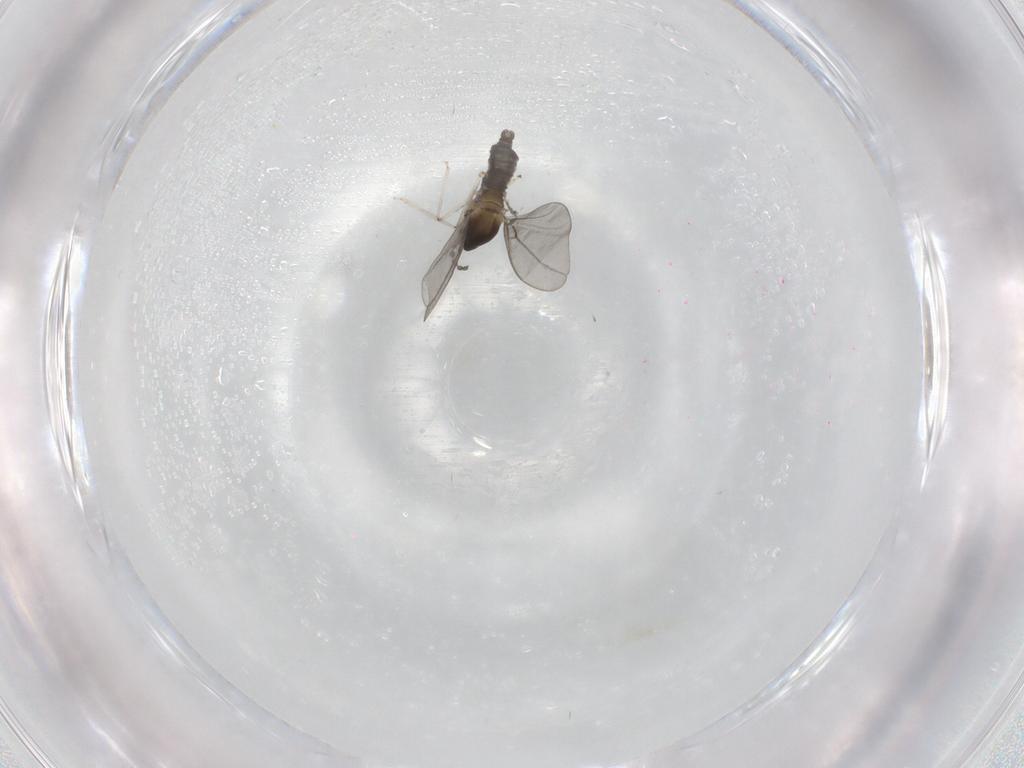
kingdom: Animalia
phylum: Arthropoda
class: Insecta
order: Diptera
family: Cecidomyiidae
